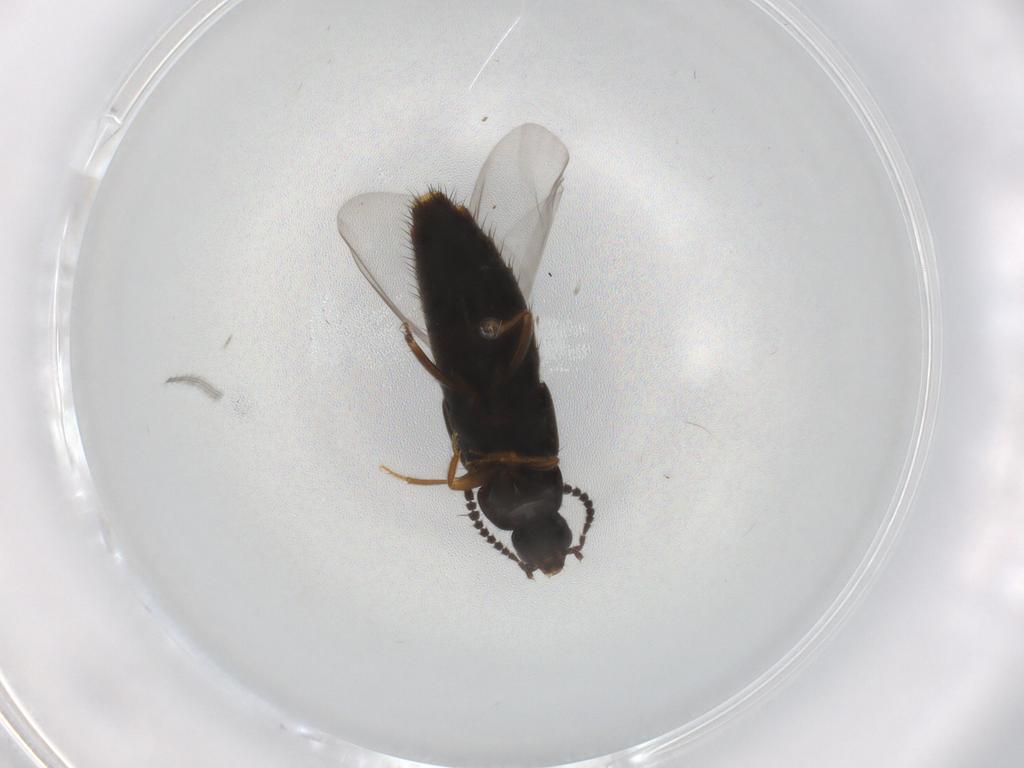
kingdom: Animalia
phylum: Arthropoda
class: Insecta
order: Coleoptera
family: Staphylinidae
